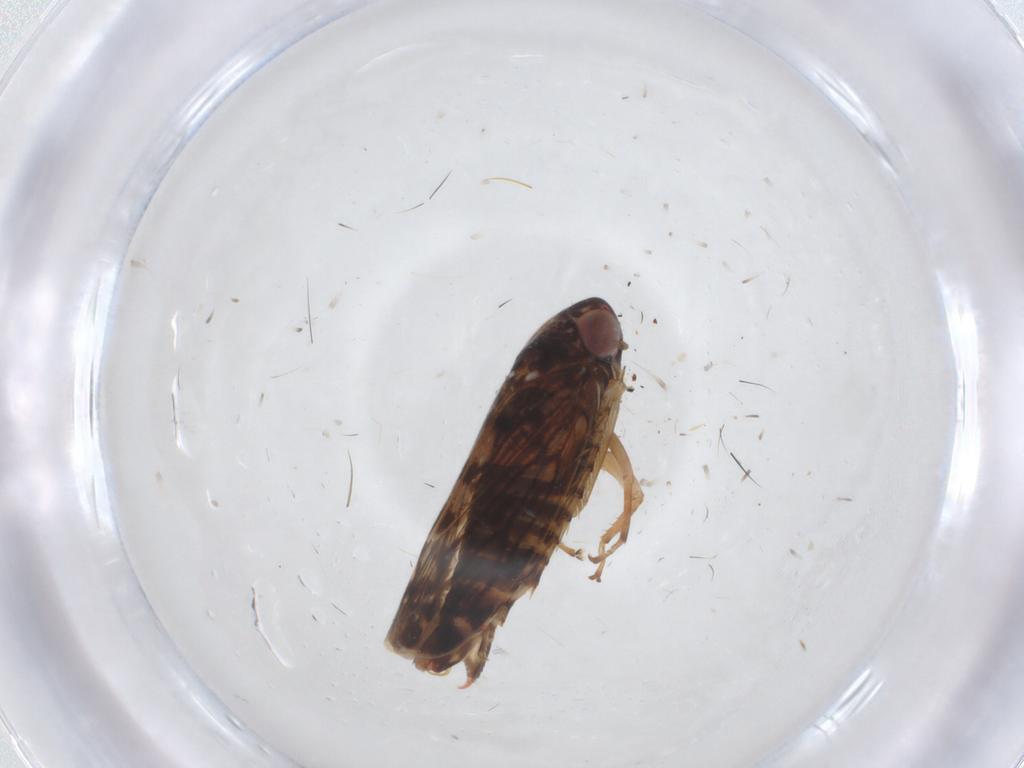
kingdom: Animalia
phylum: Arthropoda
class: Insecta
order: Hemiptera
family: Cicadellidae
